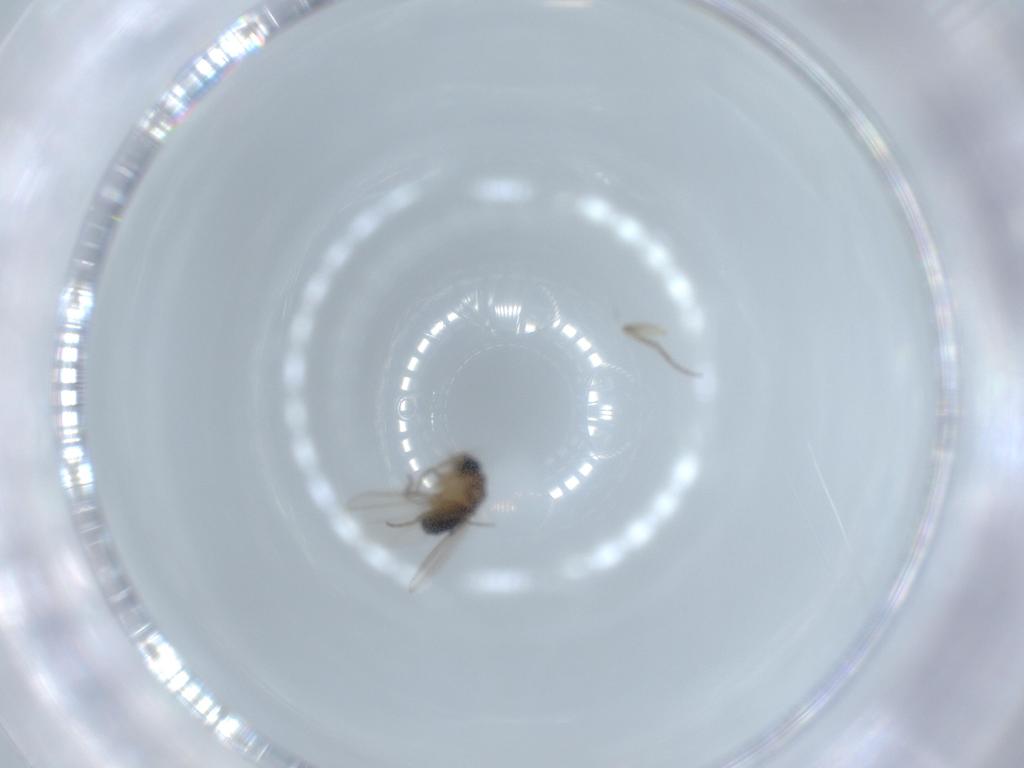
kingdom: Animalia
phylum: Arthropoda
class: Insecta
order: Diptera
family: Phoridae
